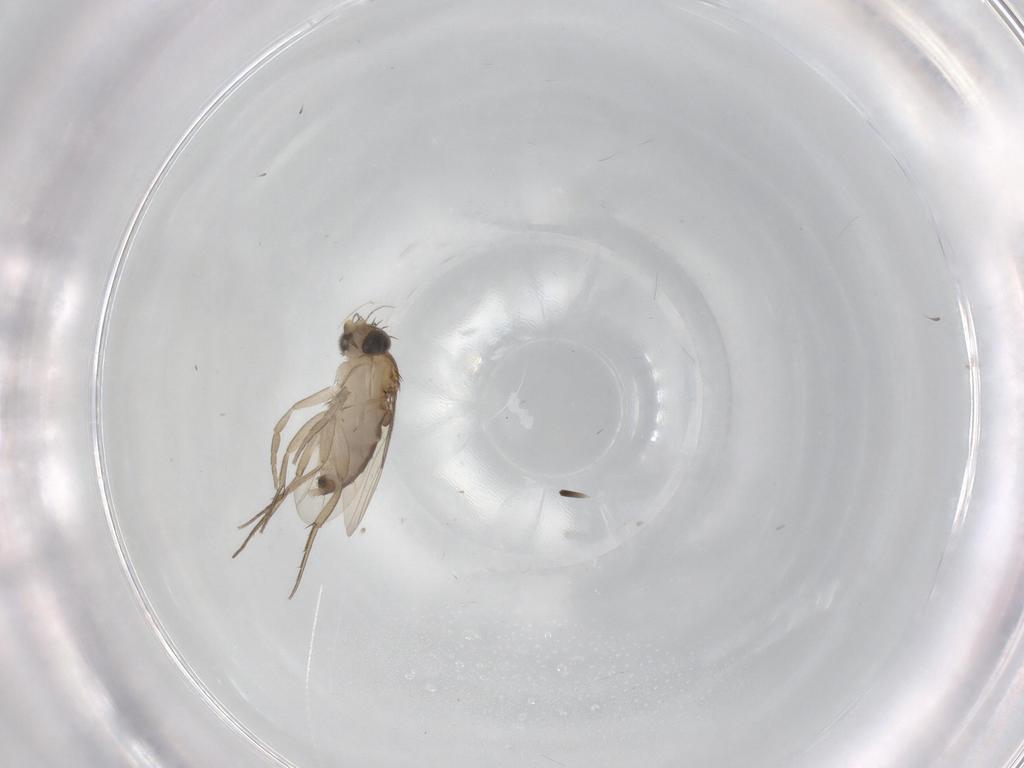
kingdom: Animalia
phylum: Arthropoda
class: Insecta
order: Diptera
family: Phoridae
